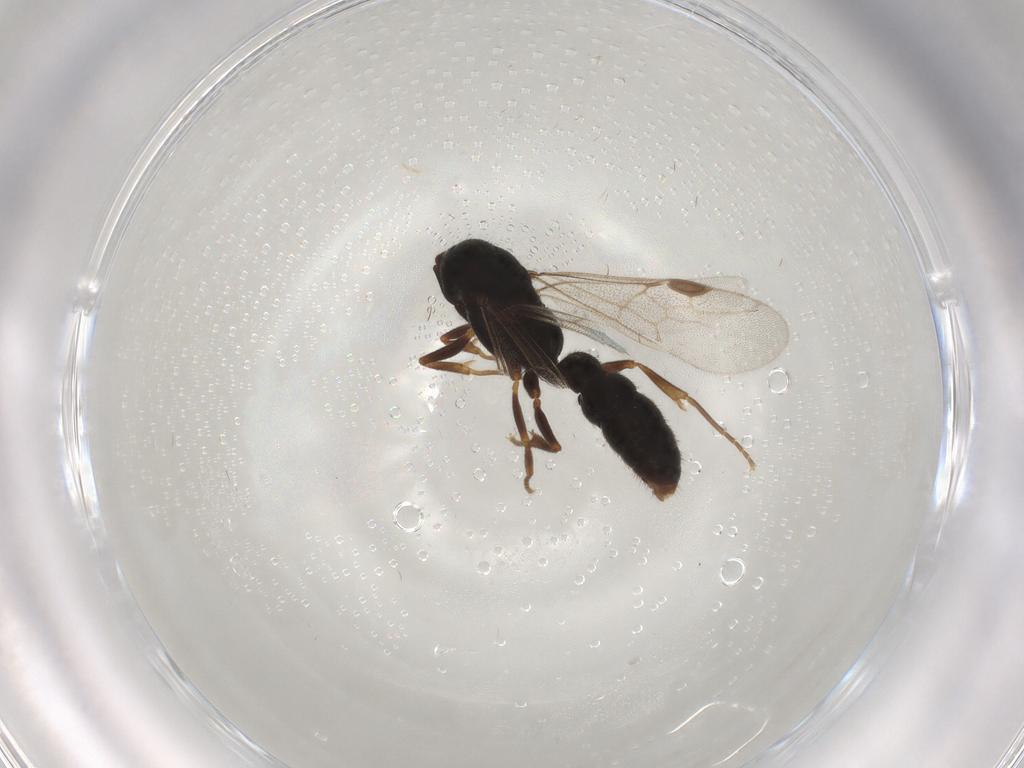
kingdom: Animalia
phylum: Arthropoda
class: Insecta
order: Hymenoptera
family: Formicidae
